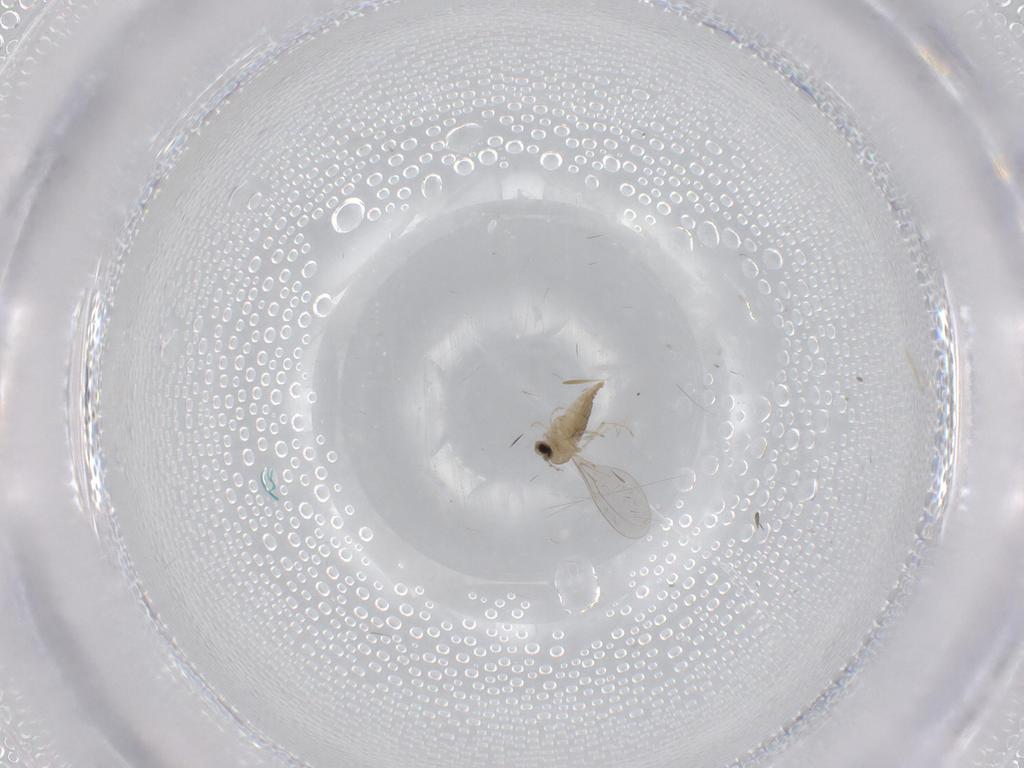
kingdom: Animalia
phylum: Arthropoda
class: Insecta
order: Diptera
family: Cecidomyiidae
